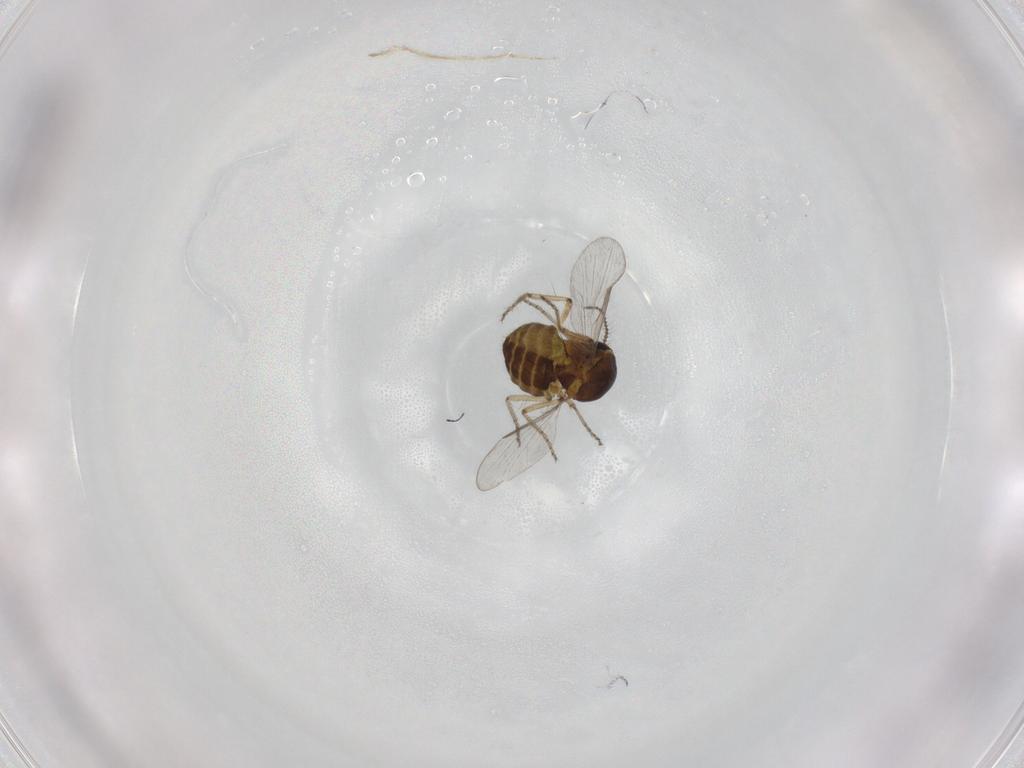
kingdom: Animalia
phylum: Arthropoda
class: Insecta
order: Diptera
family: Ceratopogonidae
